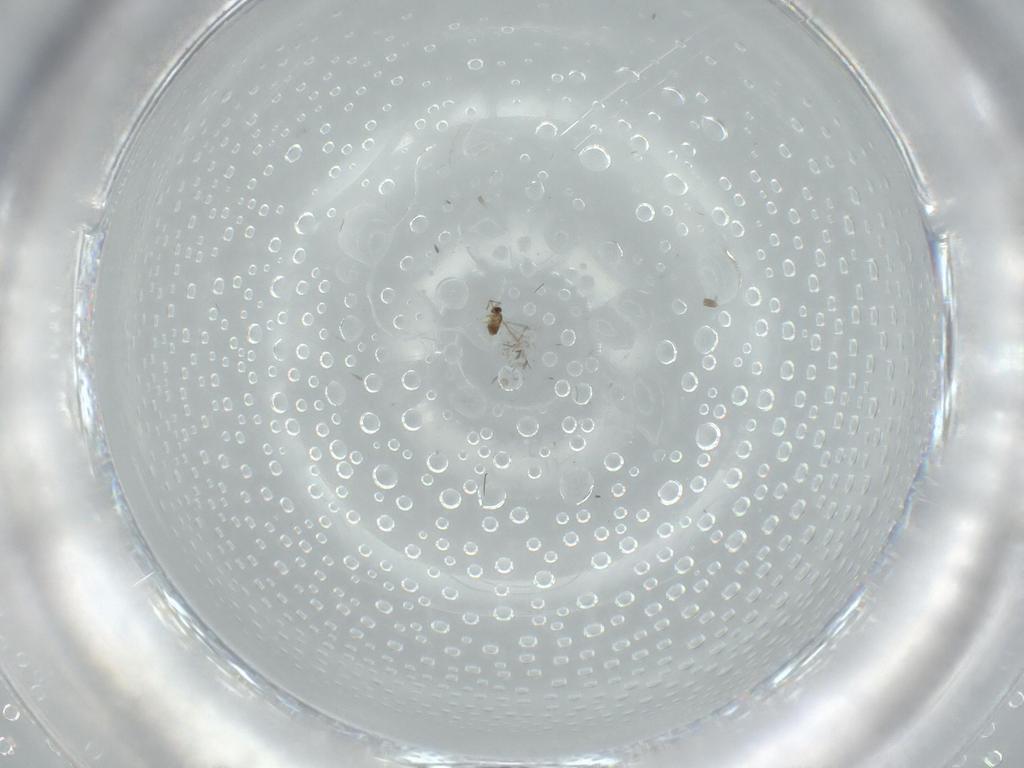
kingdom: Animalia
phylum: Arthropoda
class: Insecta
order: Hymenoptera
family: Mymaridae
